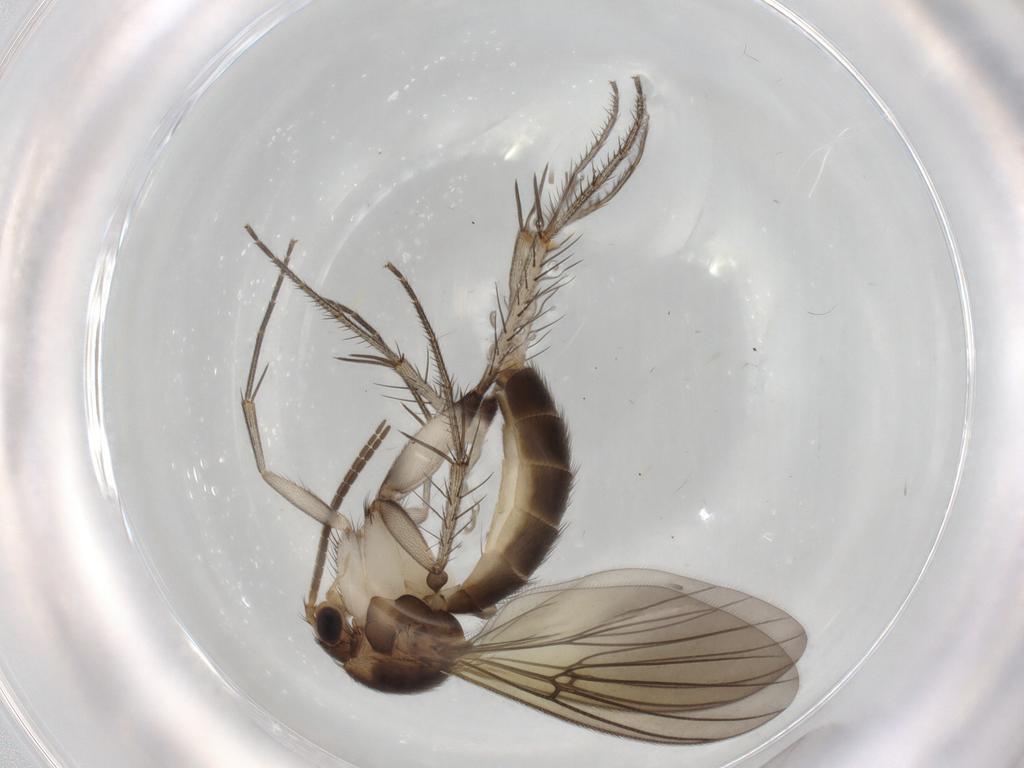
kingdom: Animalia
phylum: Arthropoda
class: Insecta
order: Diptera
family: Mycetophilidae
